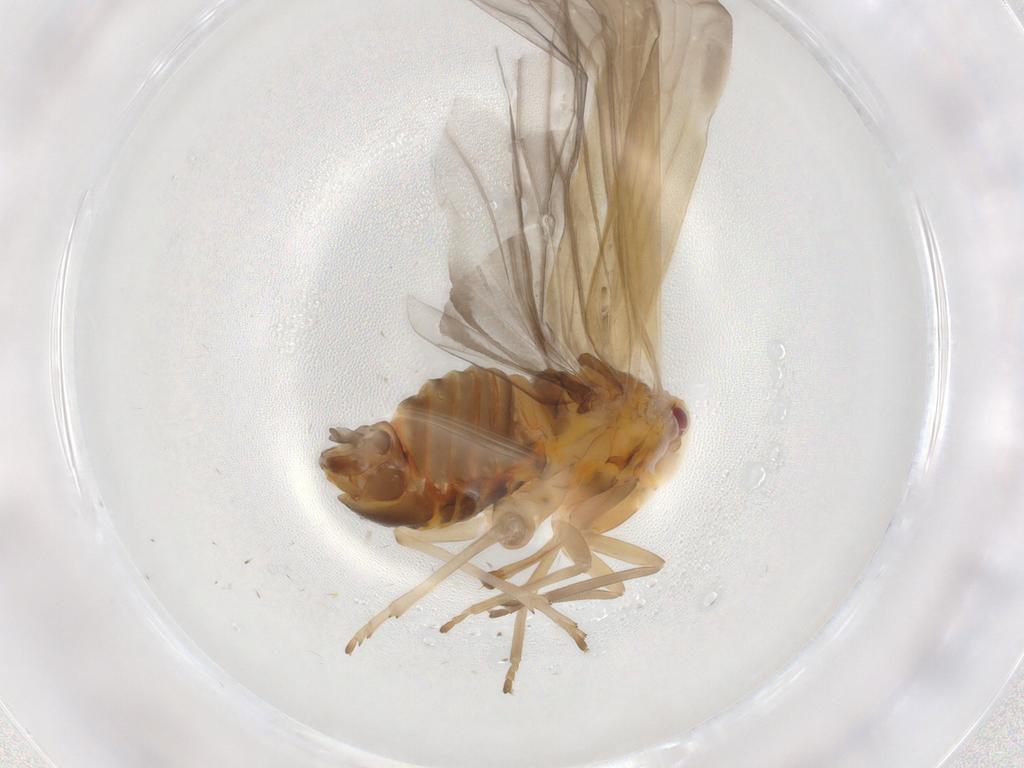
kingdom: Animalia
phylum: Arthropoda
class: Insecta
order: Hemiptera
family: Derbidae
